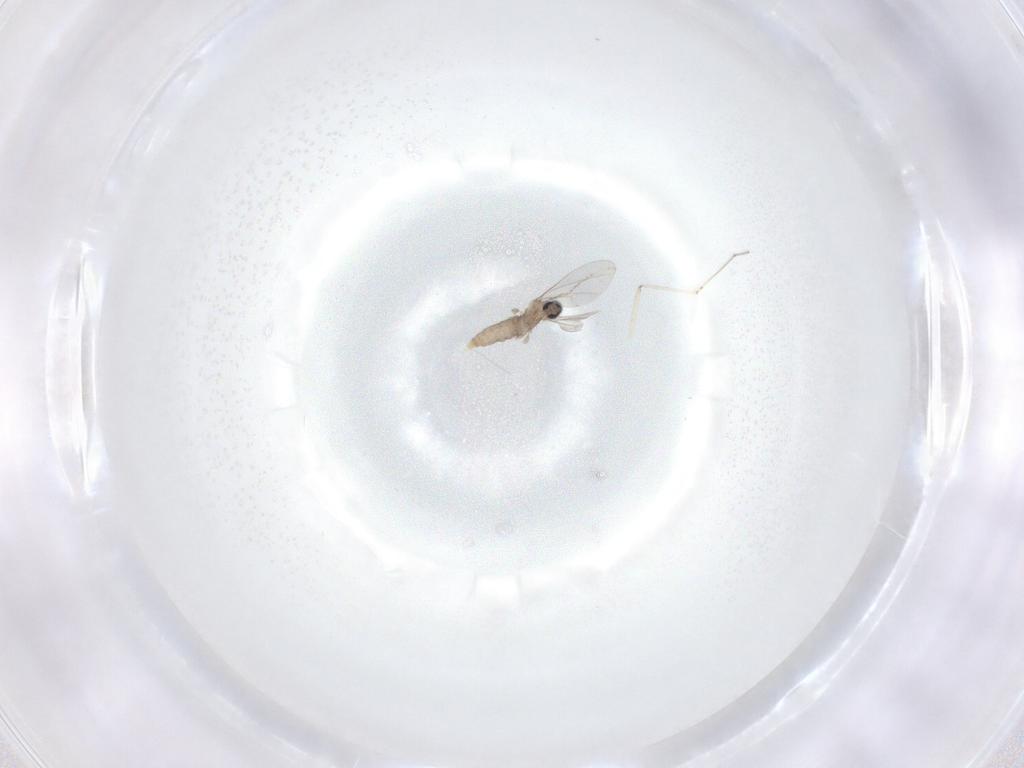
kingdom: Animalia
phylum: Arthropoda
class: Insecta
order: Diptera
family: Cecidomyiidae
